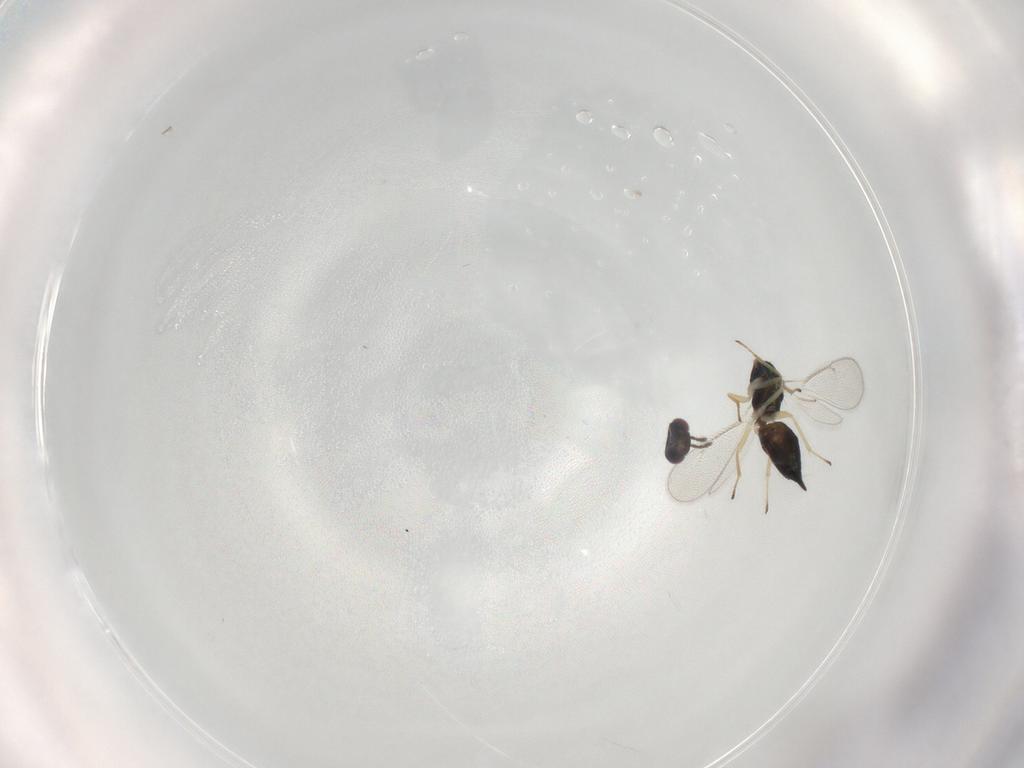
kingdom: Animalia
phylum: Arthropoda
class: Insecta
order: Hymenoptera
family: Eulophidae
